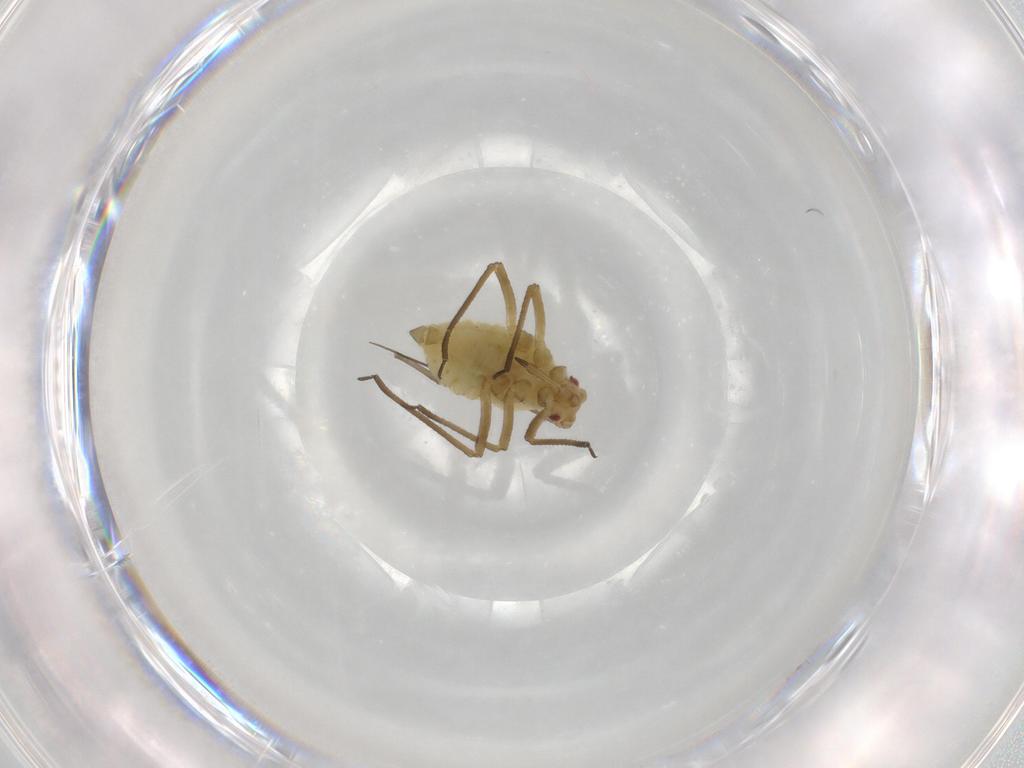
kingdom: Animalia
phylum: Arthropoda
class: Insecta
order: Hemiptera
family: Aphididae
